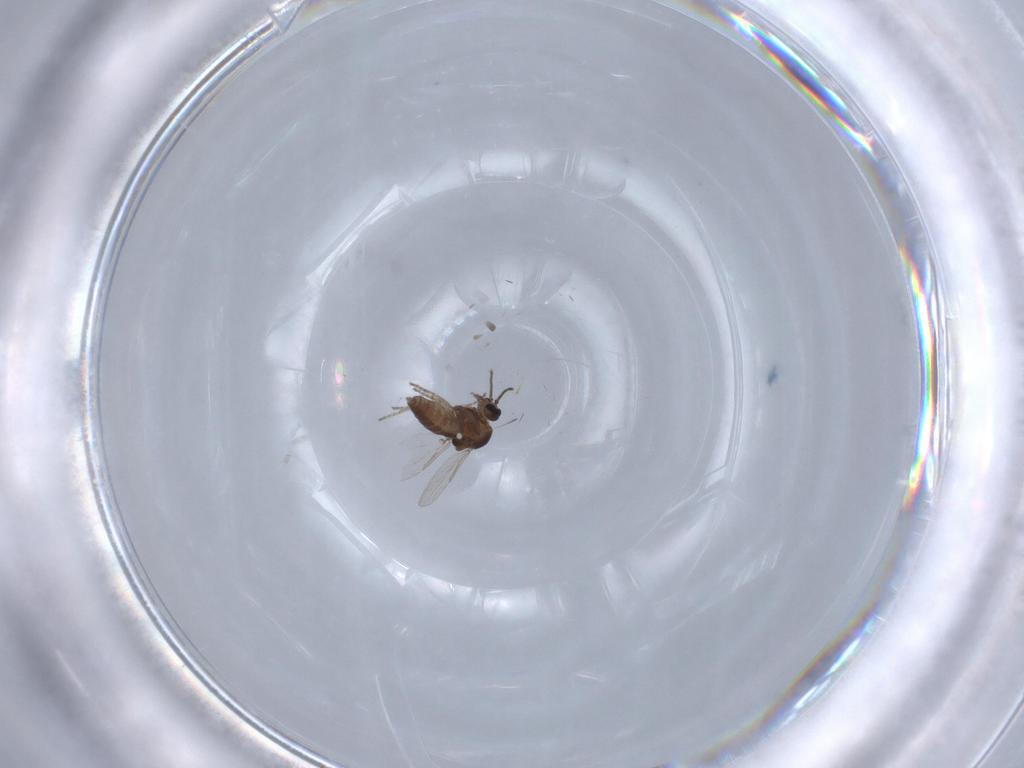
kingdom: Animalia
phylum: Arthropoda
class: Insecta
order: Diptera
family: Ceratopogonidae
